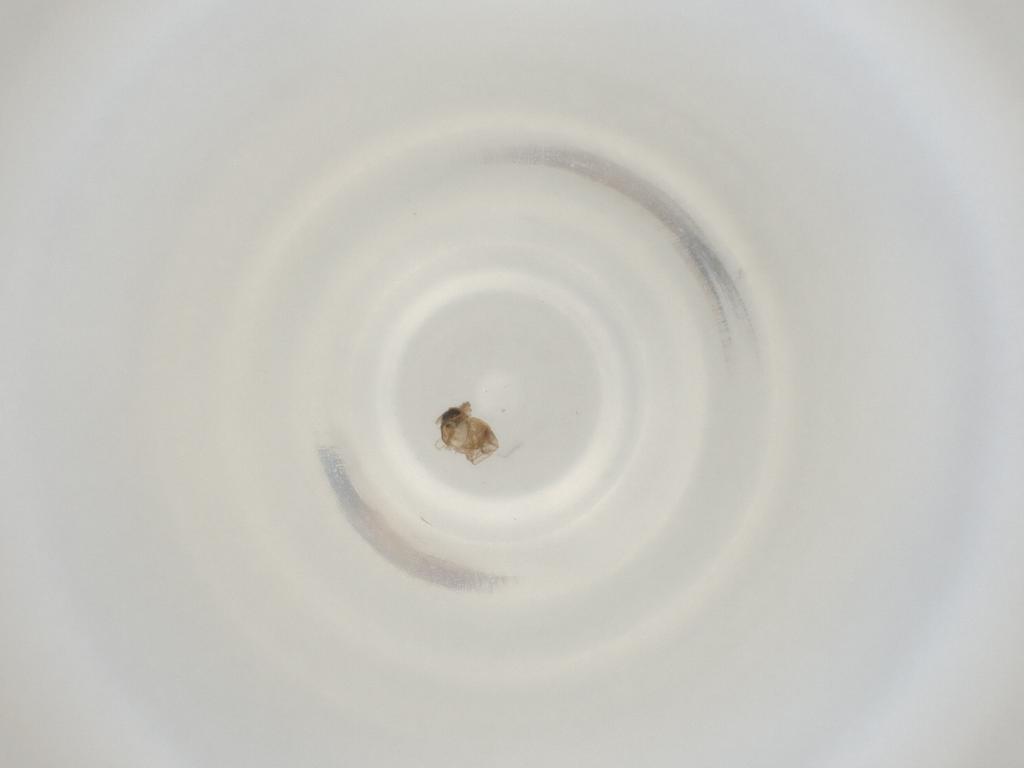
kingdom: Animalia
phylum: Arthropoda
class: Insecta
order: Diptera
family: Cecidomyiidae
